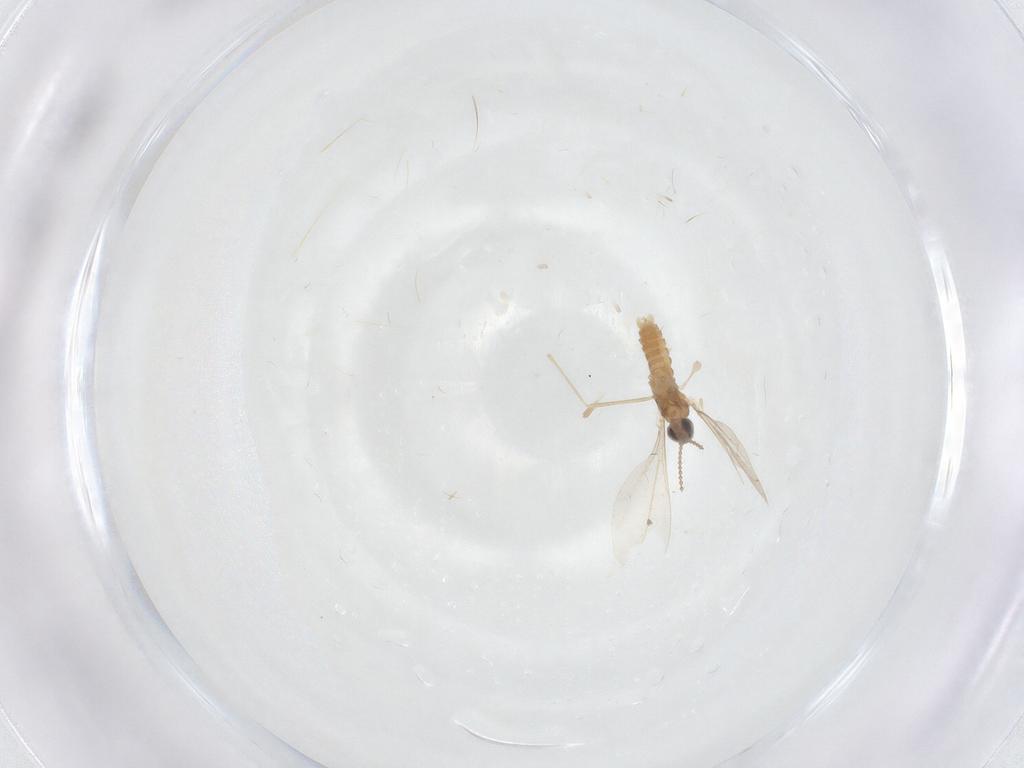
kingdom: Animalia
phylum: Arthropoda
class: Insecta
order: Diptera
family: Cecidomyiidae
